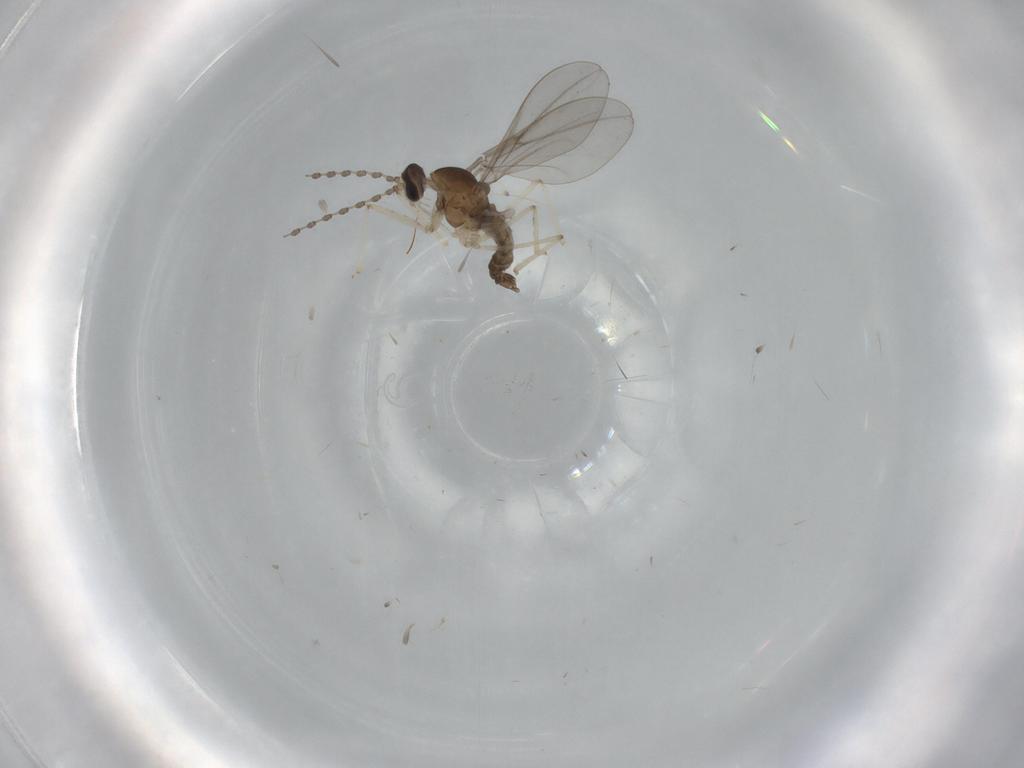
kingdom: Animalia
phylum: Arthropoda
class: Insecta
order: Diptera
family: Cecidomyiidae
